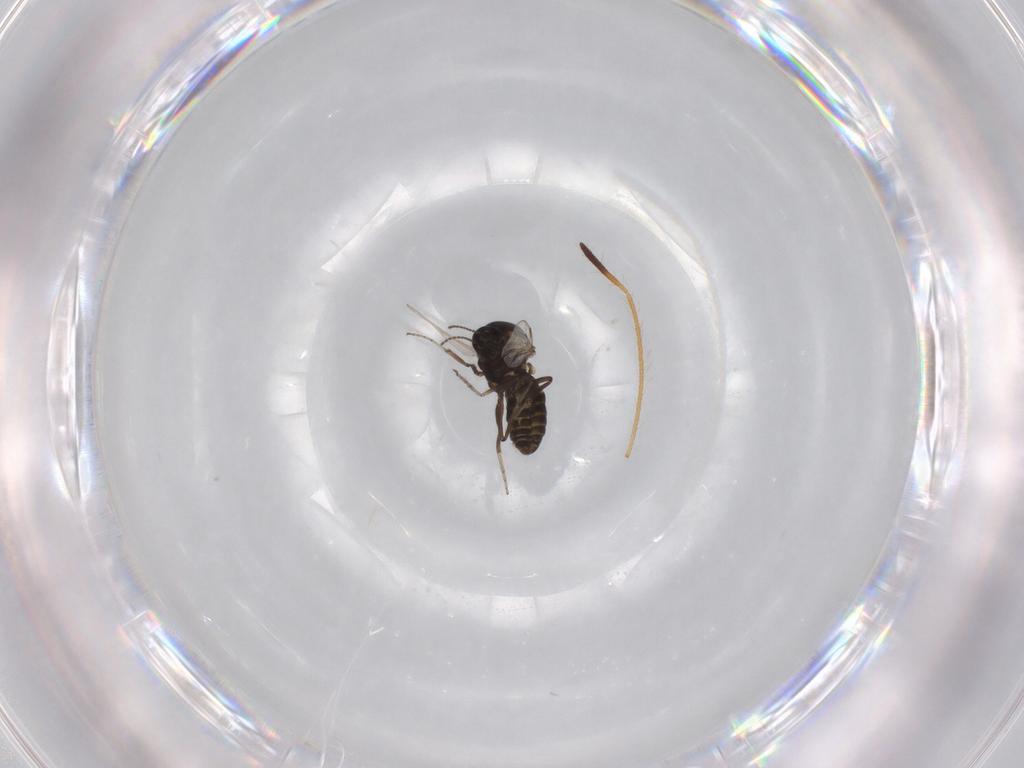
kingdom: Animalia
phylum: Arthropoda
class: Insecta
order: Diptera
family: Ceratopogonidae
